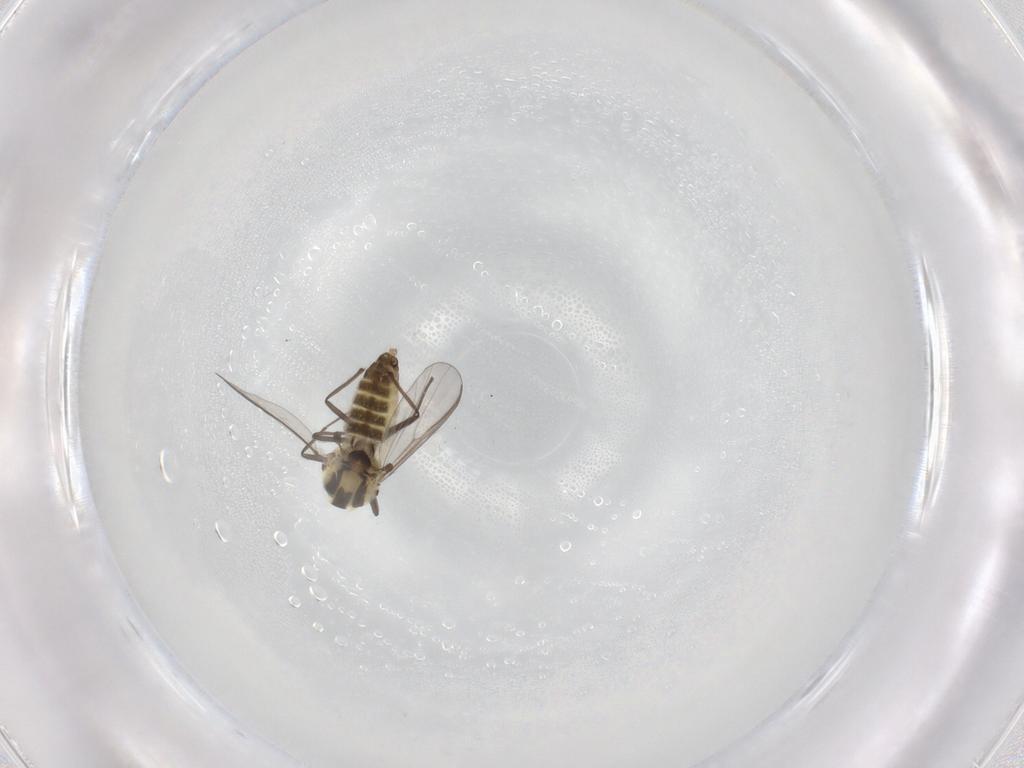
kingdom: Animalia
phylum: Arthropoda
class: Insecta
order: Diptera
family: Chironomidae
